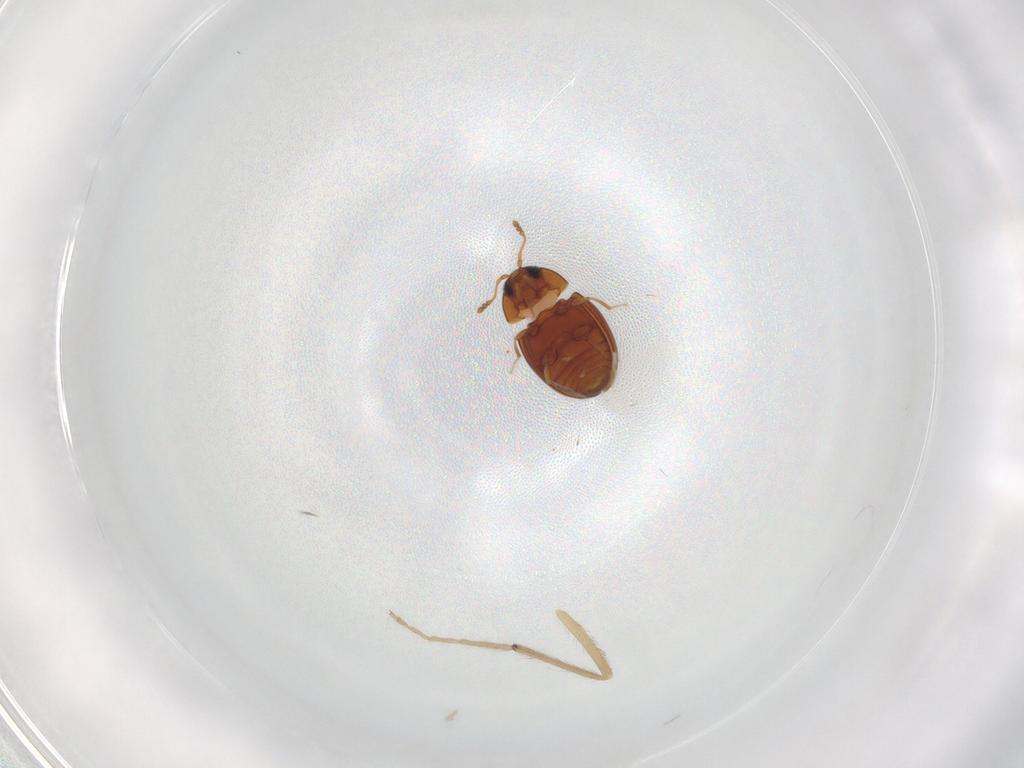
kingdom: Animalia
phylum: Arthropoda
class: Insecta
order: Coleoptera
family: Cryptophagidae
